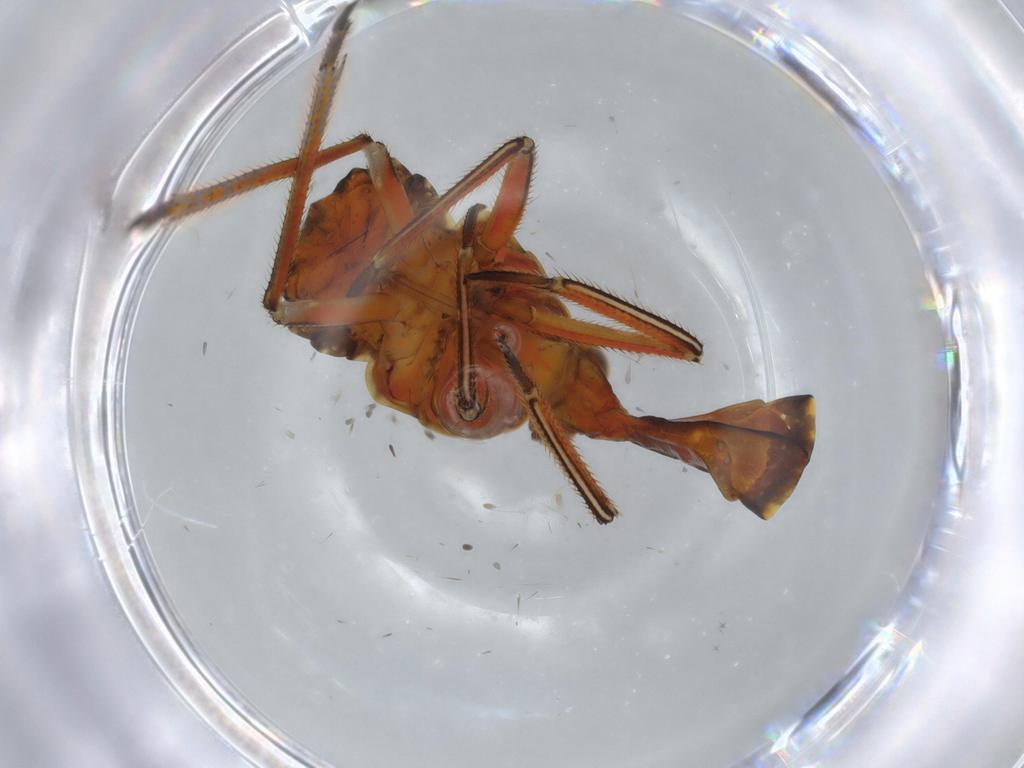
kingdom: Animalia
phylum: Arthropoda
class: Insecta
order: Hemiptera
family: Fulgoridae
